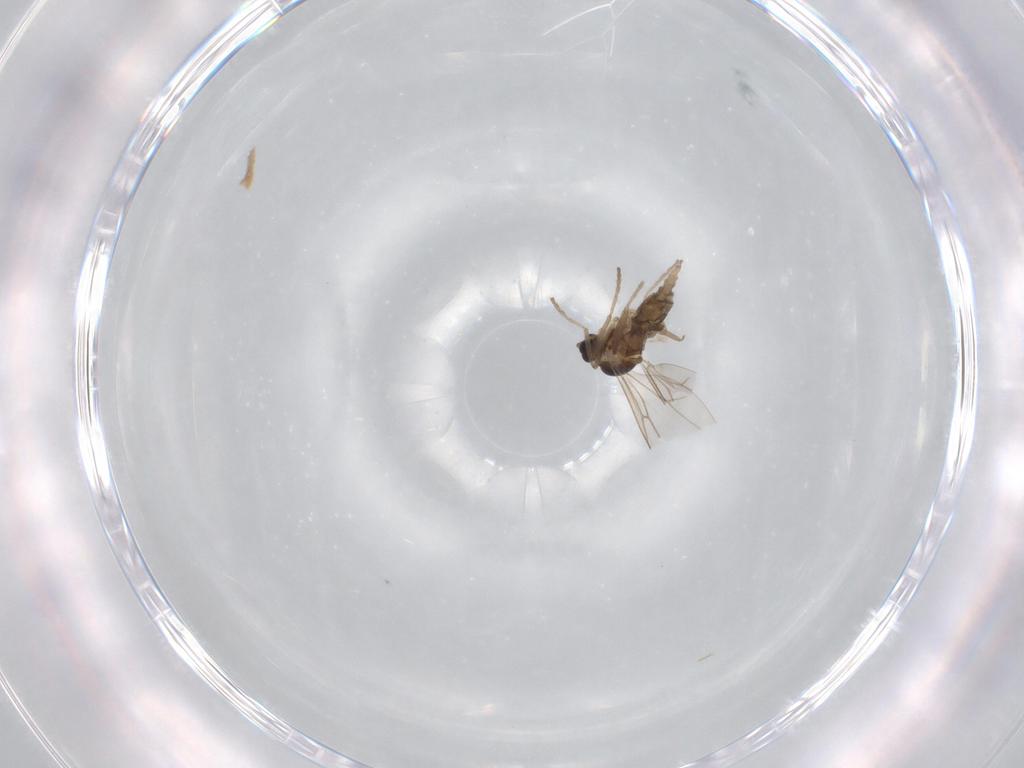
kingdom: Animalia
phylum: Arthropoda
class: Insecta
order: Diptera
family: Cecidomyiidae
